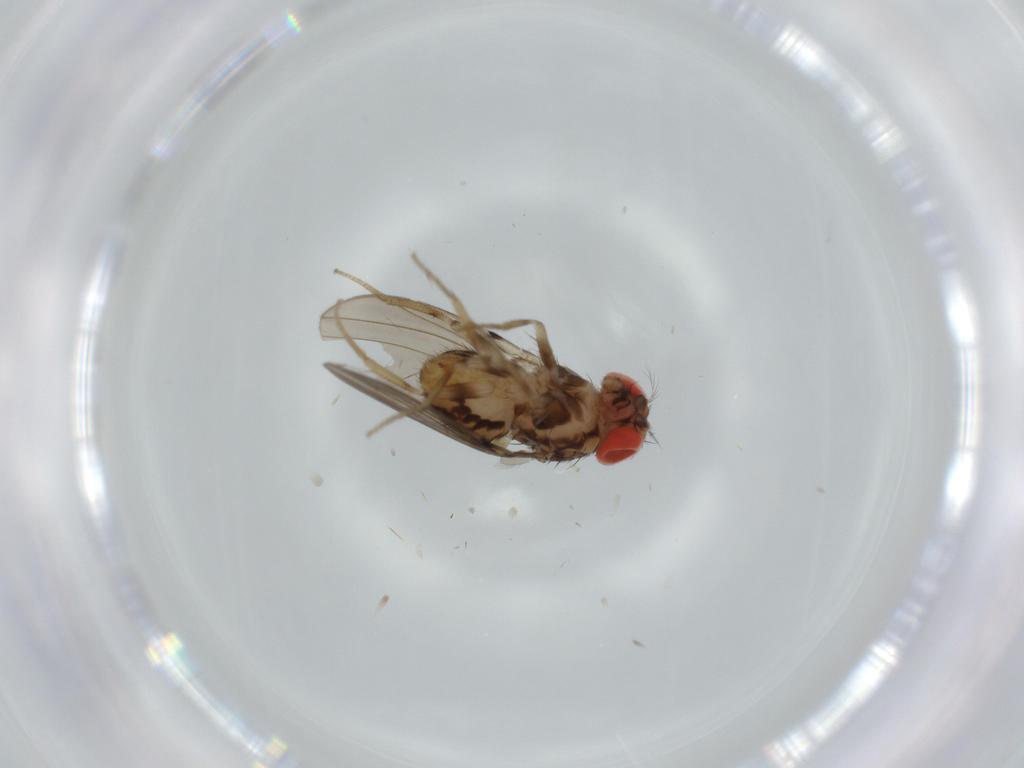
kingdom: Animalia
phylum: Arthropoda
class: Insecta
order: Diptera
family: Drosophilidae
